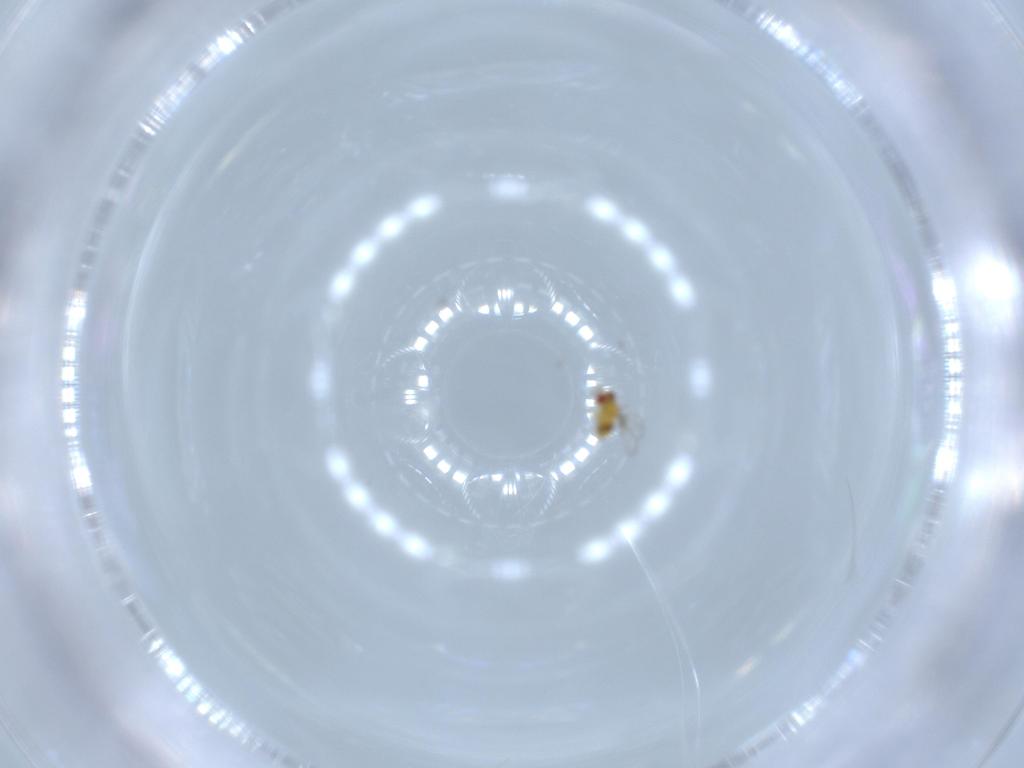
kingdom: Animalia
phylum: Arthropoda
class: Insecta
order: Hymenoptera
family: Trichogrammatidae
